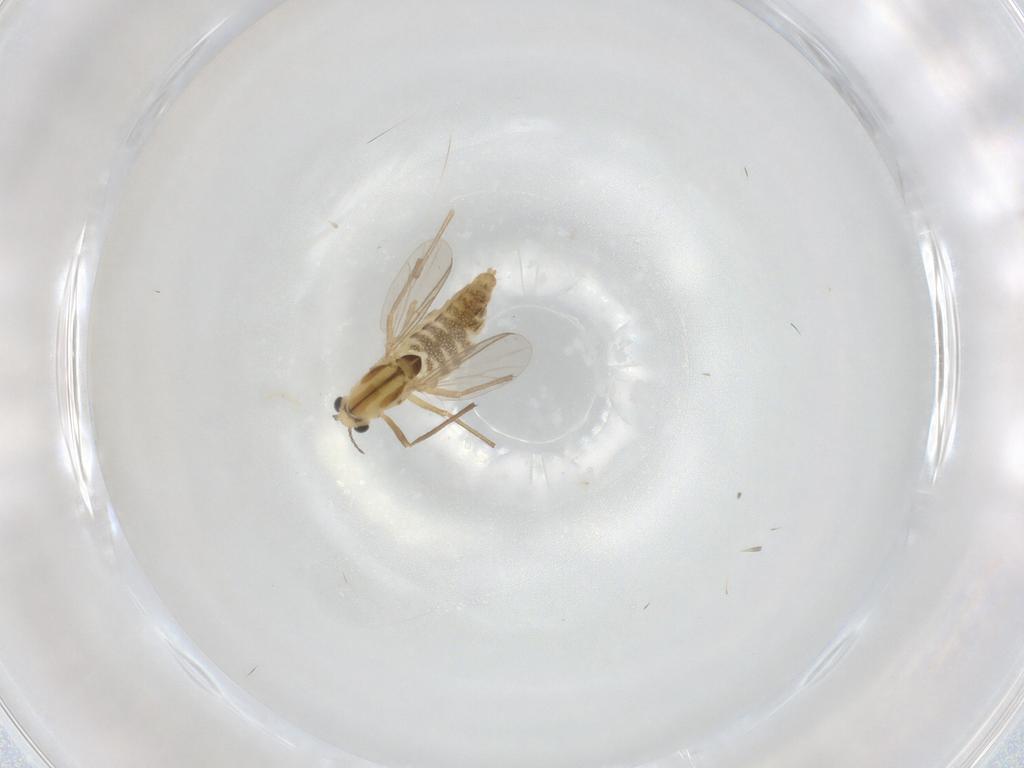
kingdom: Animalia
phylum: Arthropoda
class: Insecta
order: Diptera
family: Chironomidae
